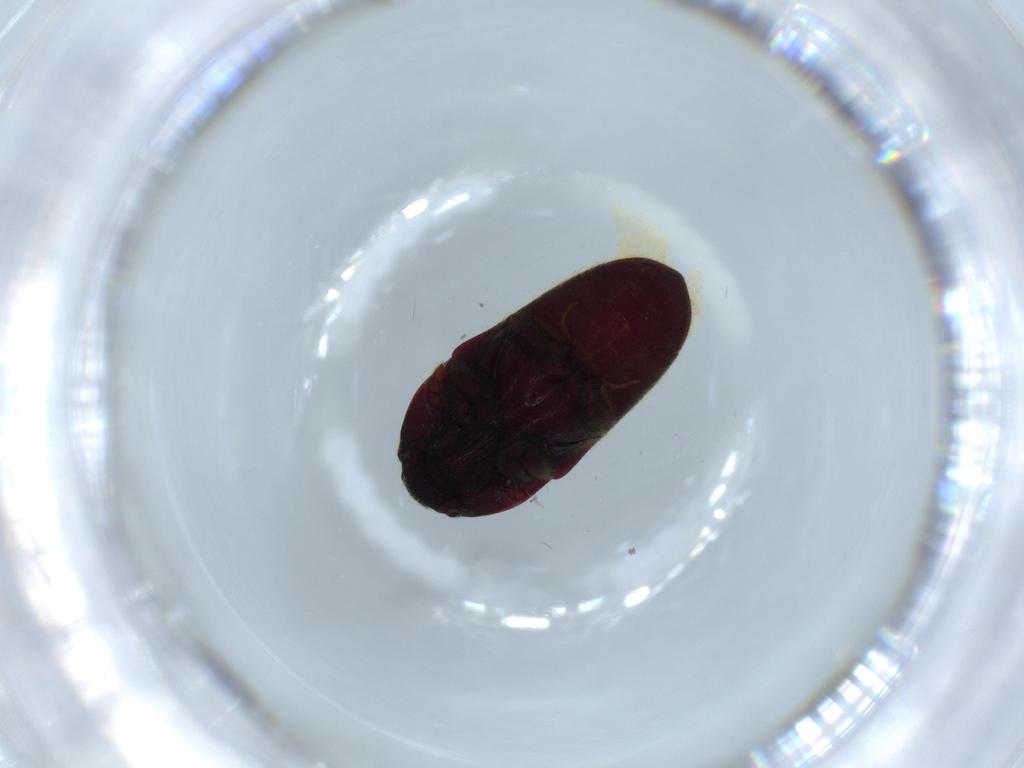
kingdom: Animalia
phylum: Arthropoda
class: Insecta
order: Coleoptera
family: Throscidae
